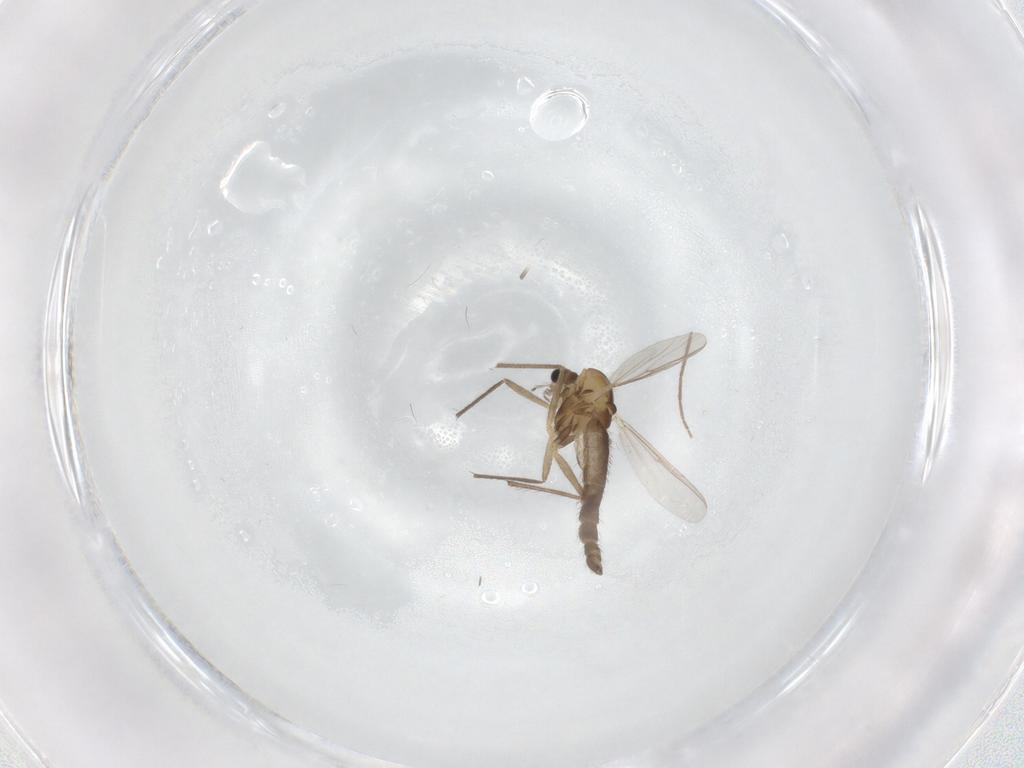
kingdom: Animalia
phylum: Arthropoda
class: Insecta
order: Diptera
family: Chironomidae
